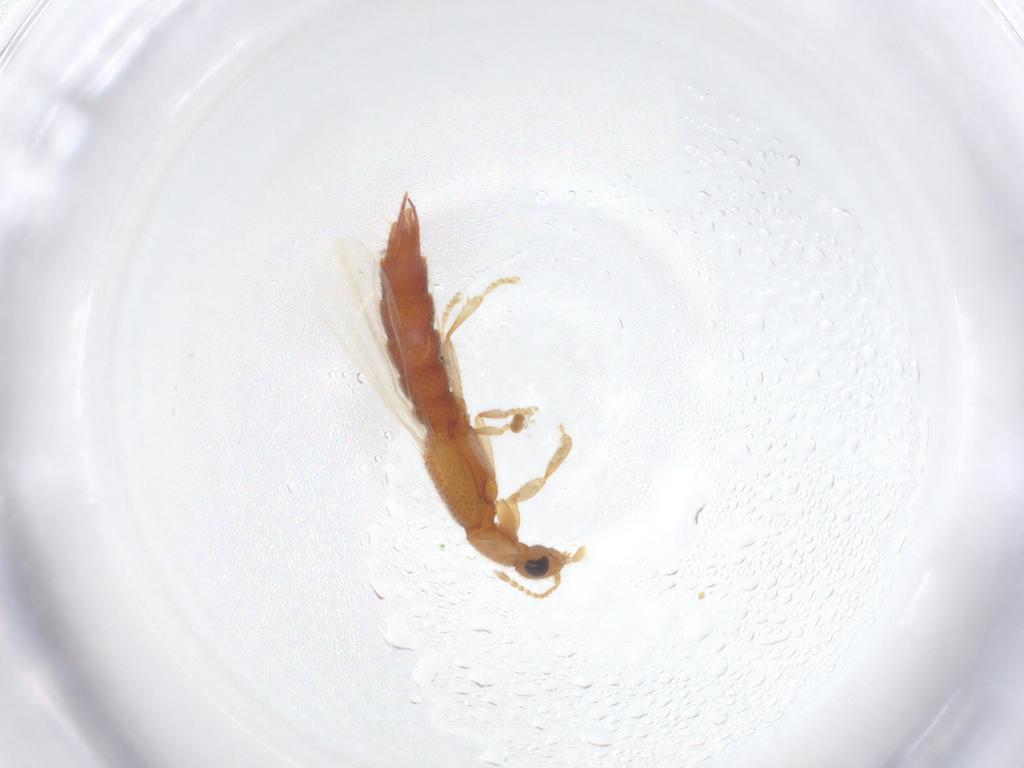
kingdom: Animalia
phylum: Arthropoda
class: Insecta
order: Coleoptera
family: Staphylinidae
